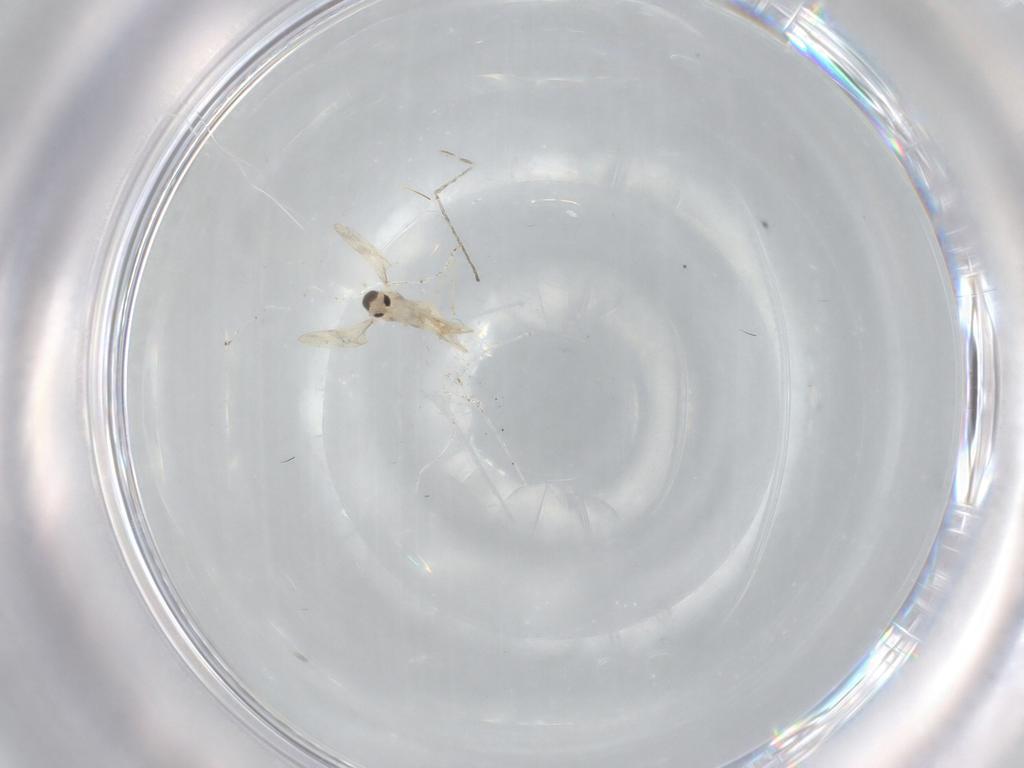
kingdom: Animalia
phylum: Arthropoda
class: Insecta
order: Diptera
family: Cecidomyiidae
